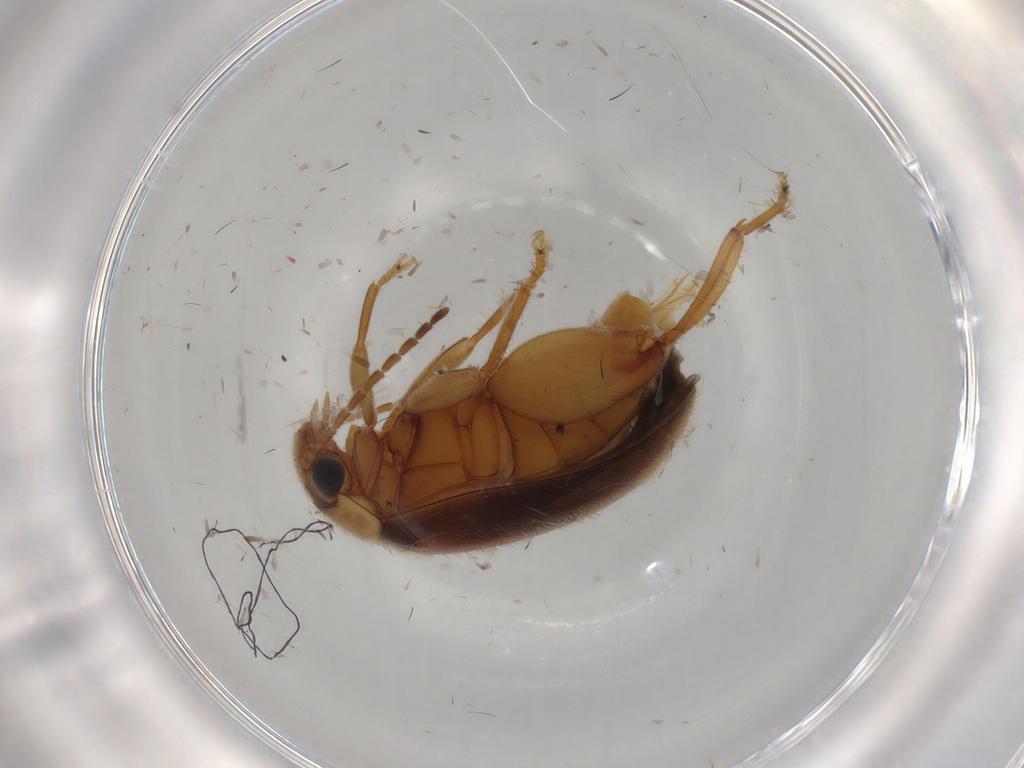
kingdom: Animalia
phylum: Arthropoda
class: Insecta
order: Coleoptera
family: Scirtidae
